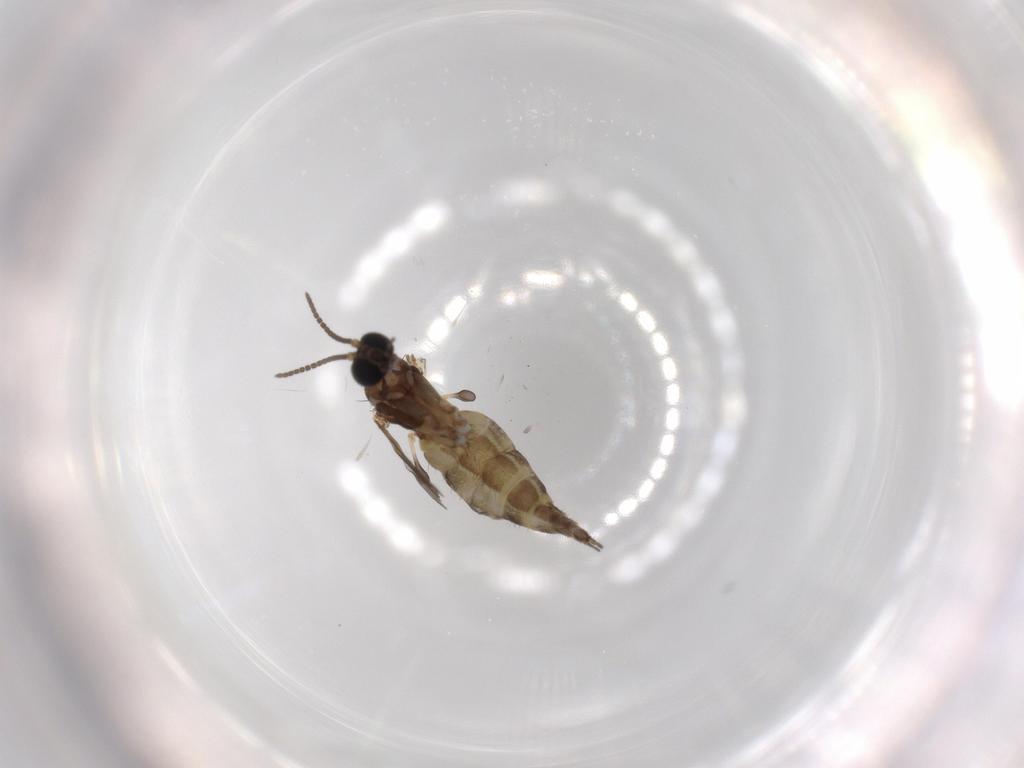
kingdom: Animalia
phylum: Arthropoda
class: Insecta
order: Diptera
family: Sciaridae
